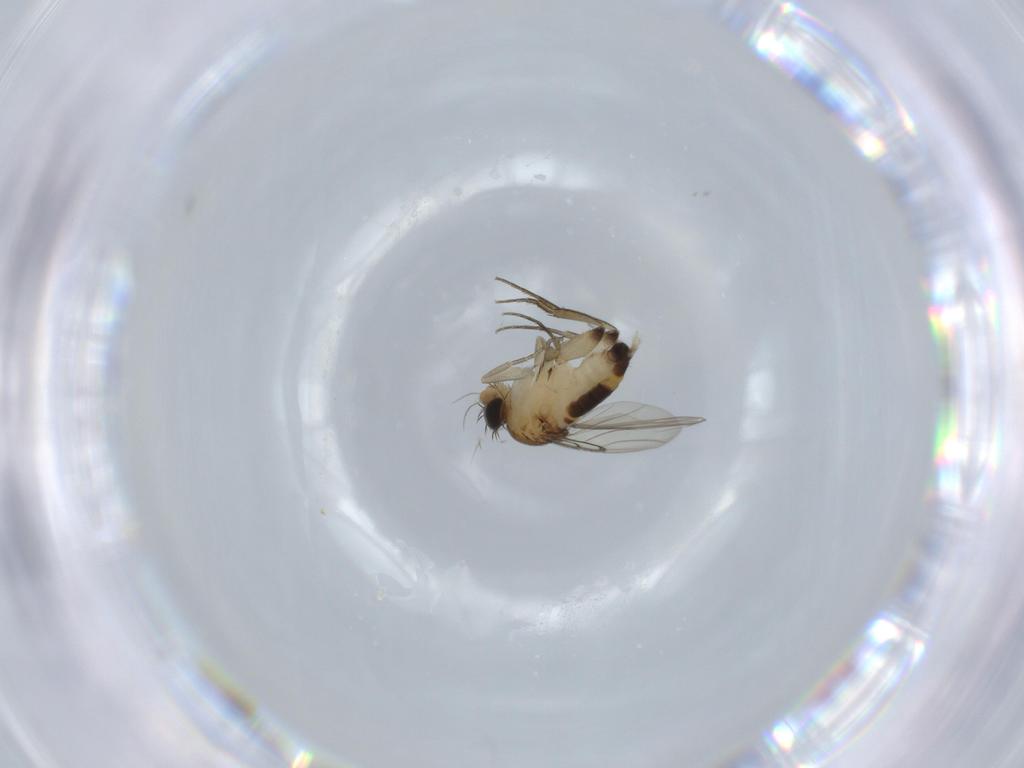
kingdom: Animalia
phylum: Arthropoda
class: Insecta
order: Diptera
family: Phoridae
